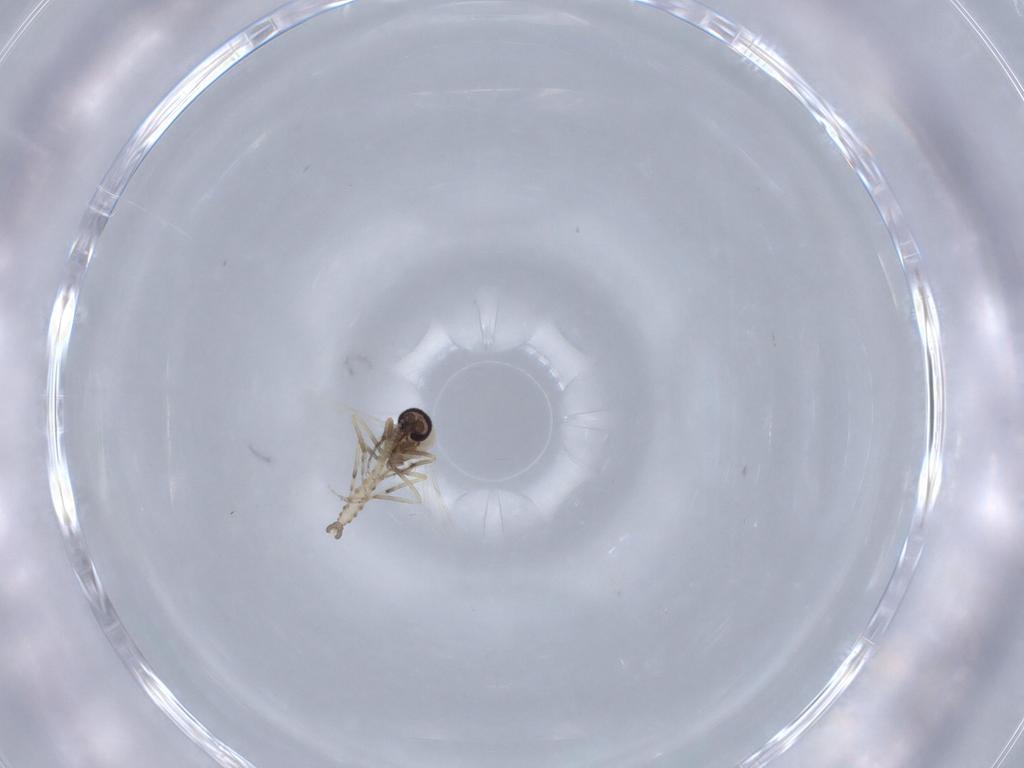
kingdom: Animalia
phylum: Arthropoda
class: Insecta
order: Diptera
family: Ceratopogonidae
